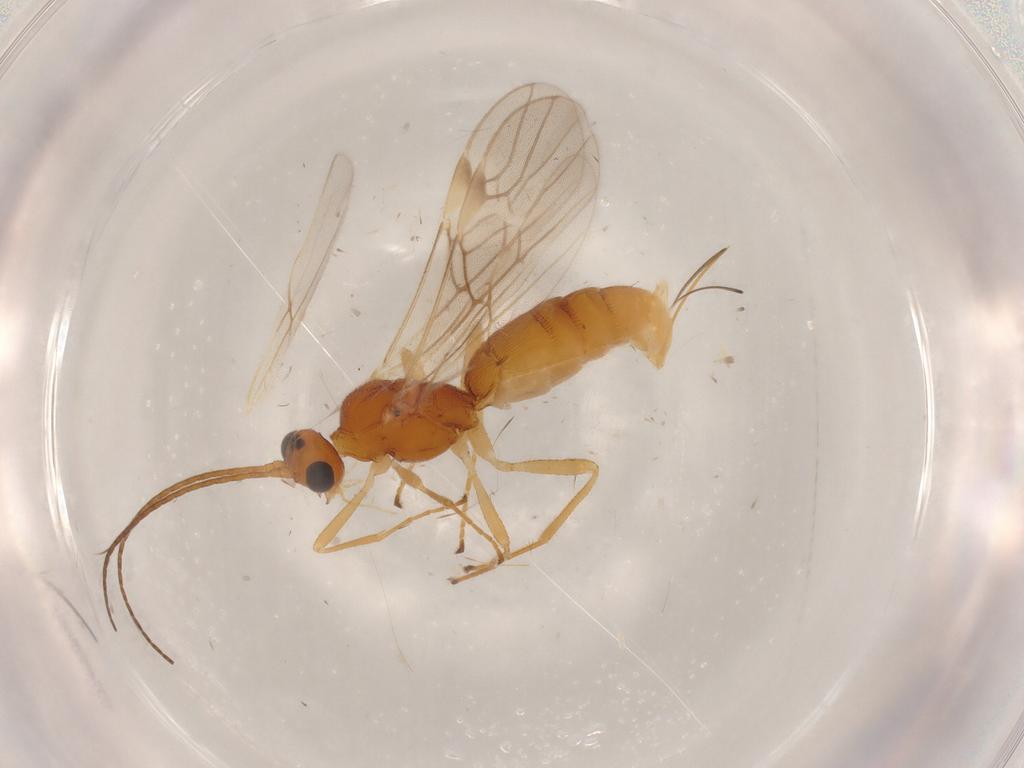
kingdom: Animalia
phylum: Arthropoda
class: Insecta
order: Hymenoptera
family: Braconidae
